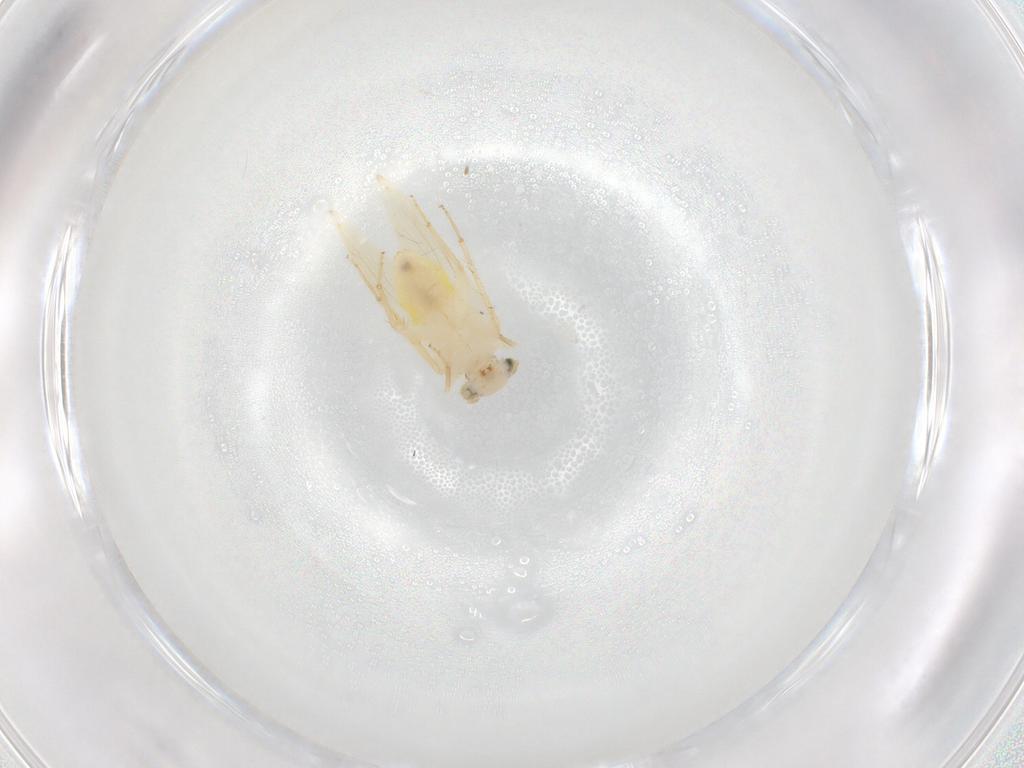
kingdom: Animalia
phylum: Arthropoda
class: Insecta
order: Psocodea
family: Lepidopsocidae
